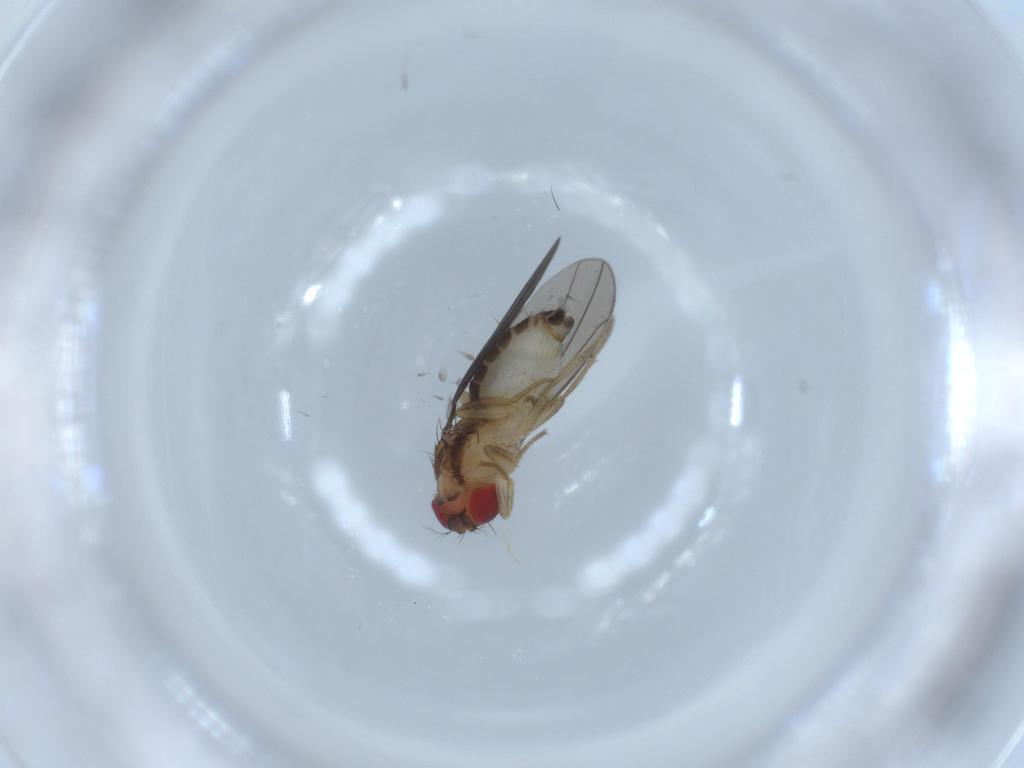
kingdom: Animalia
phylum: Arthropoda
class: Insecta
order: Diptera
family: Drosophilidae
